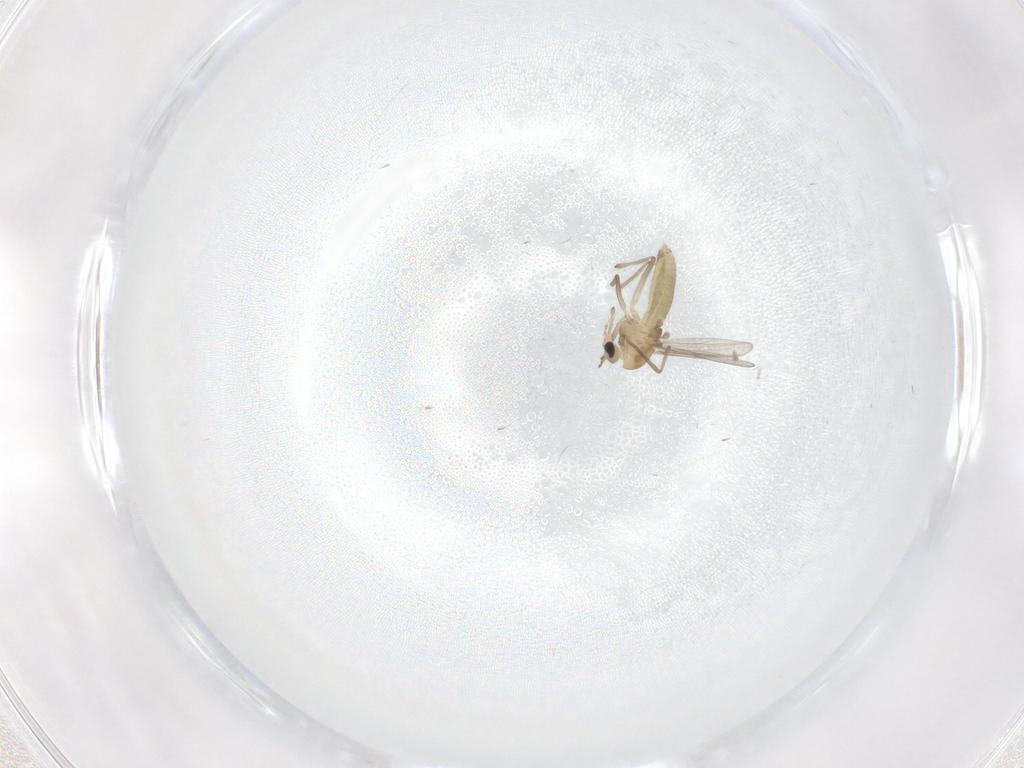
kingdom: Animalia
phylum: Arthropoda
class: Insecta
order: Diptera
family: Chironomidae
